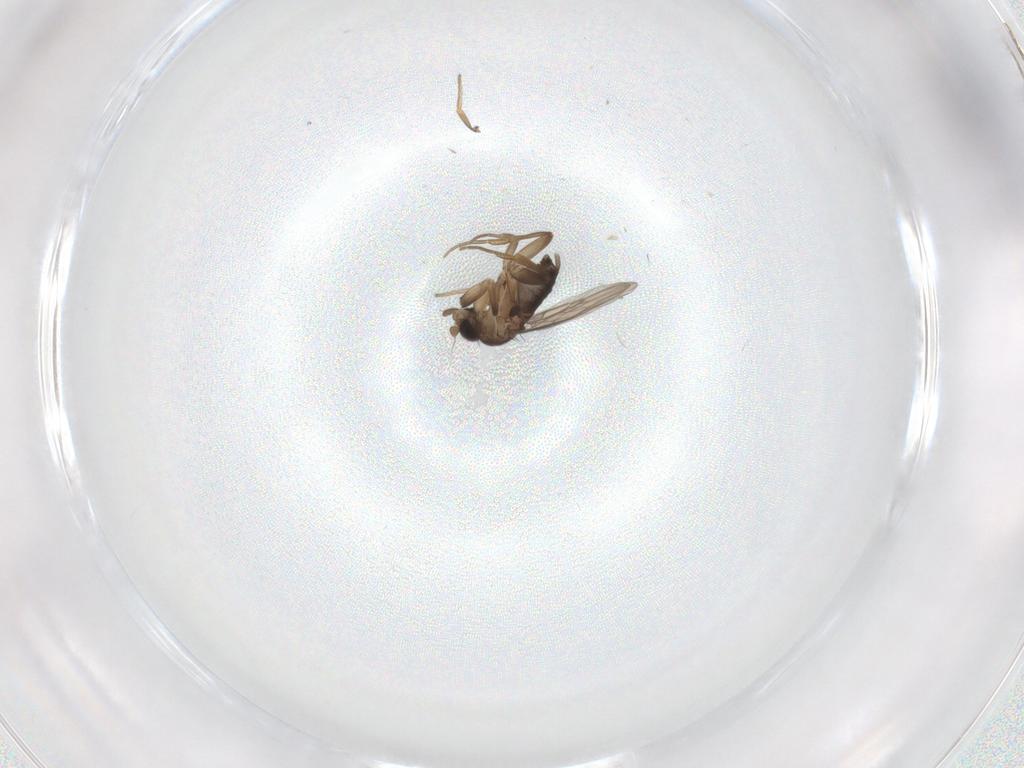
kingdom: Animalia
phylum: Arthropoda
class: Insecta
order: Diptera
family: Cecidomyiidae
